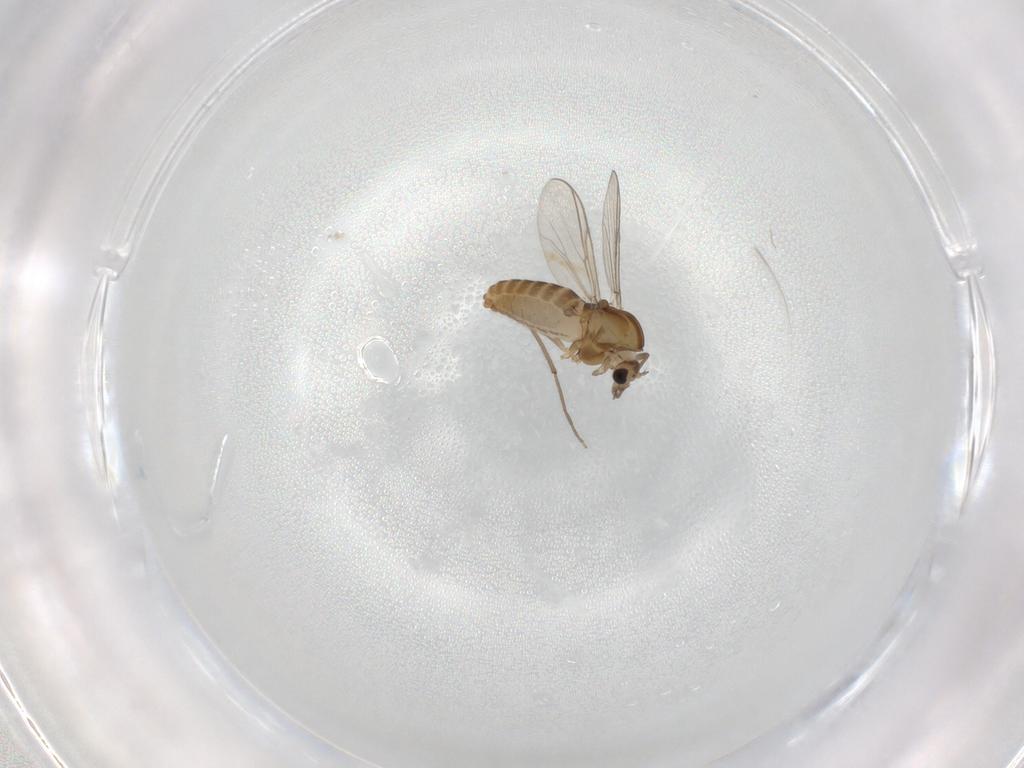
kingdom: Animalia
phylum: Arthropoda
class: Insecta
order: Diptera
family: Chironomidae
